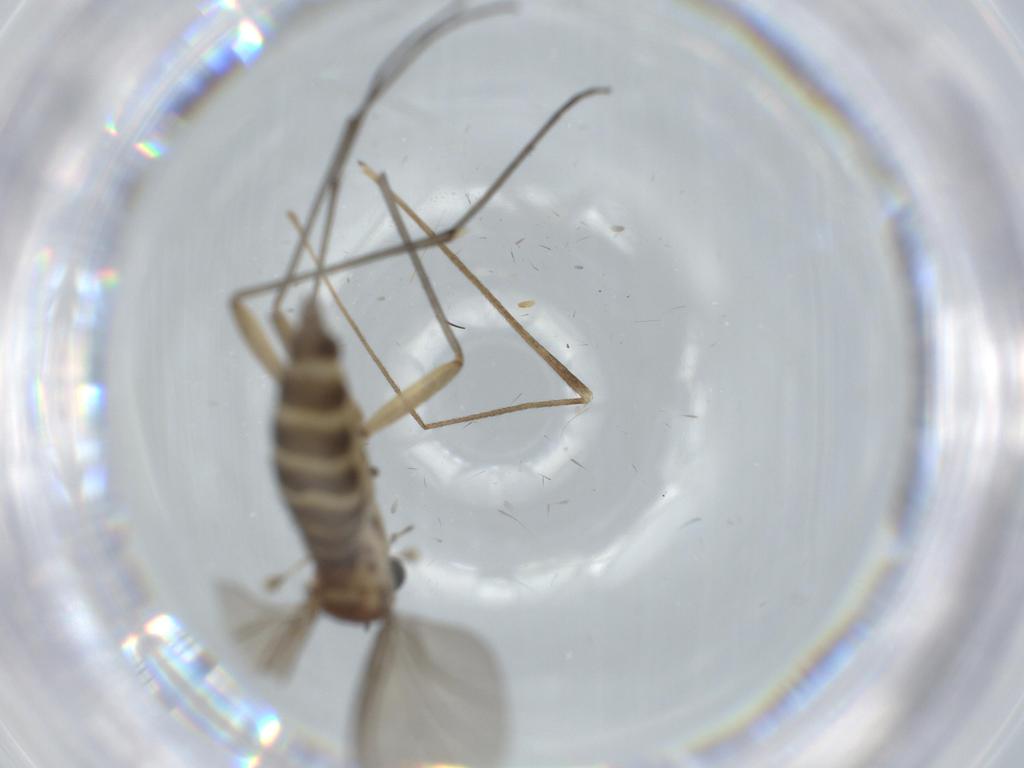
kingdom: Animalia
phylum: Arthropoda
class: Insecta
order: Diptera
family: Sciaridae
